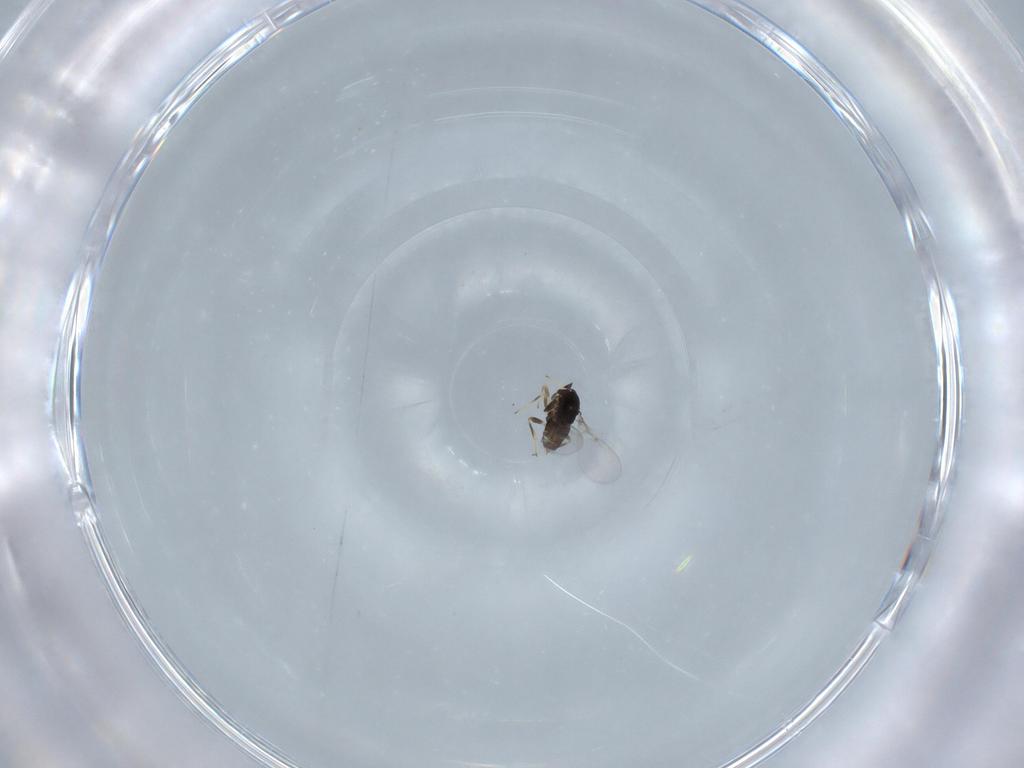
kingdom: Animalia
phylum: Arthropoda
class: Insecta
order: Hymenoptera
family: Encyrtidae
